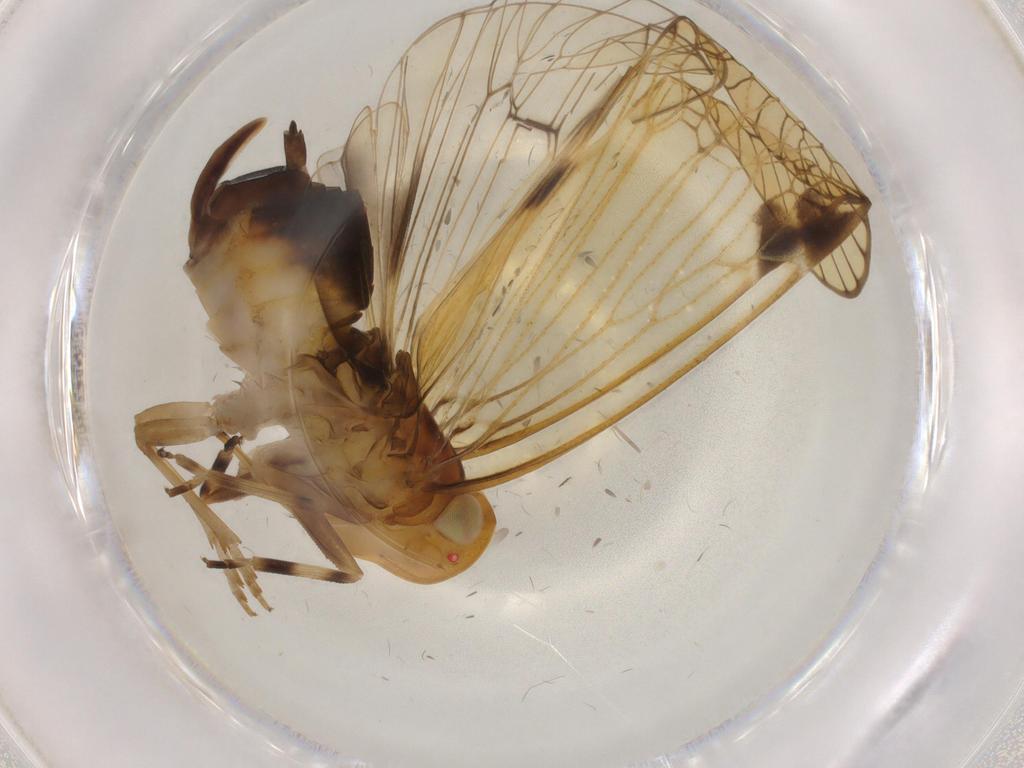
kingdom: Animalia
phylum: Arthropoda
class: Insecta
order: Hemiptera
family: Cixiidae
